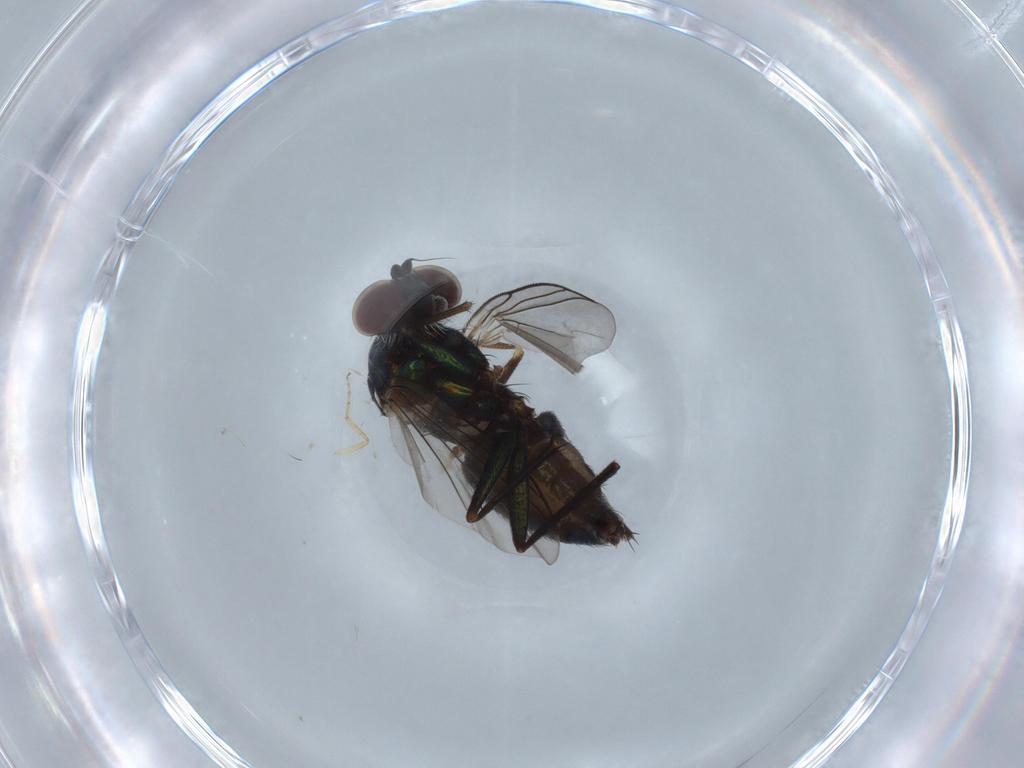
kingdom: Animalia
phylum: Arthropoda
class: Insecta
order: Diptera
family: Dolichopodidae
